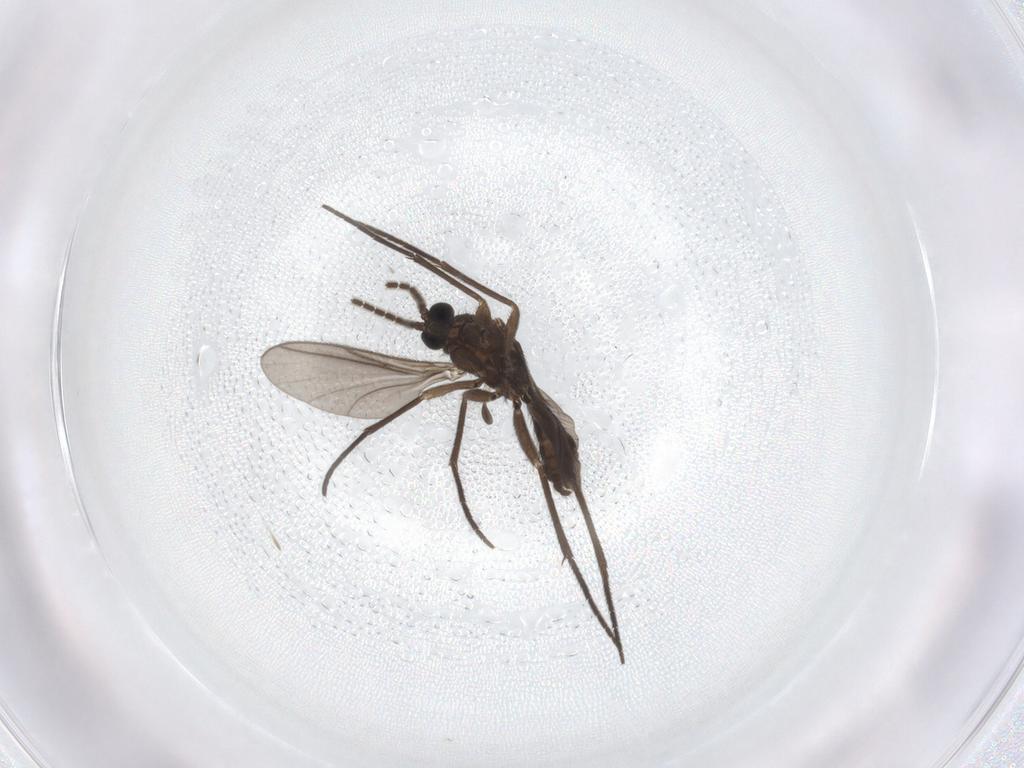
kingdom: Animalia
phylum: Arthropoda
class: Insecta
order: Diptera
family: Sciaridae
